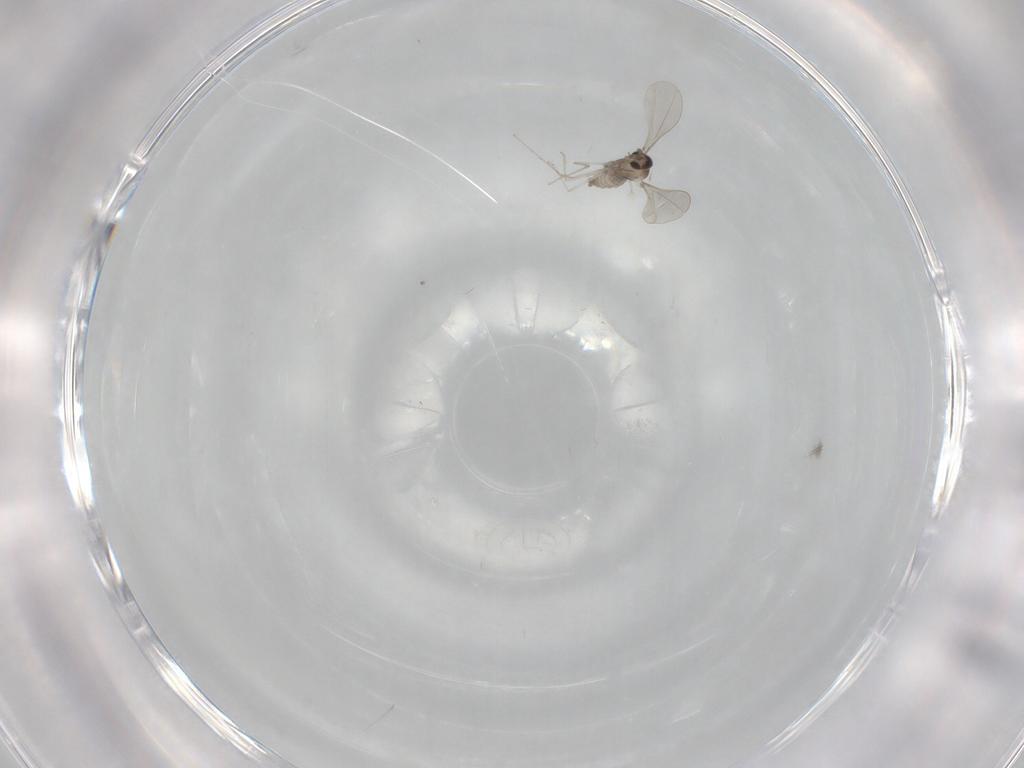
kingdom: Animalia
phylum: Arthropoda
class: Insecta
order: Diptera
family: Cecidomyiidae
